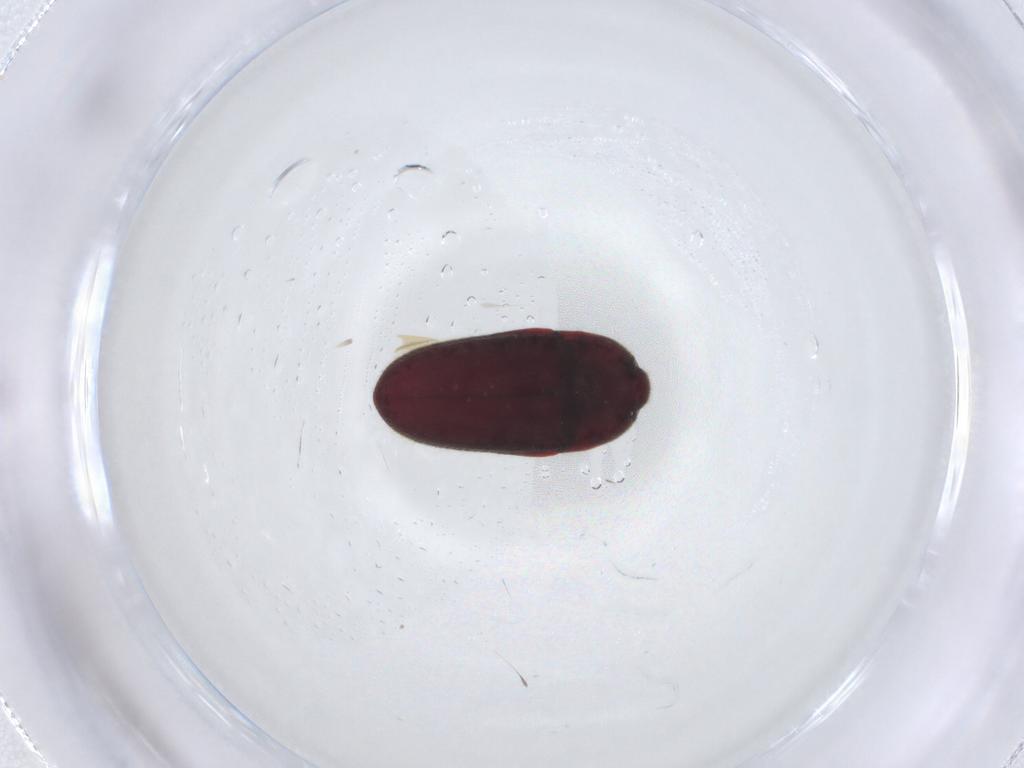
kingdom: Animalia
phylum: Arthropoda
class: Insecta
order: Coleoptera
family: Throscidae
